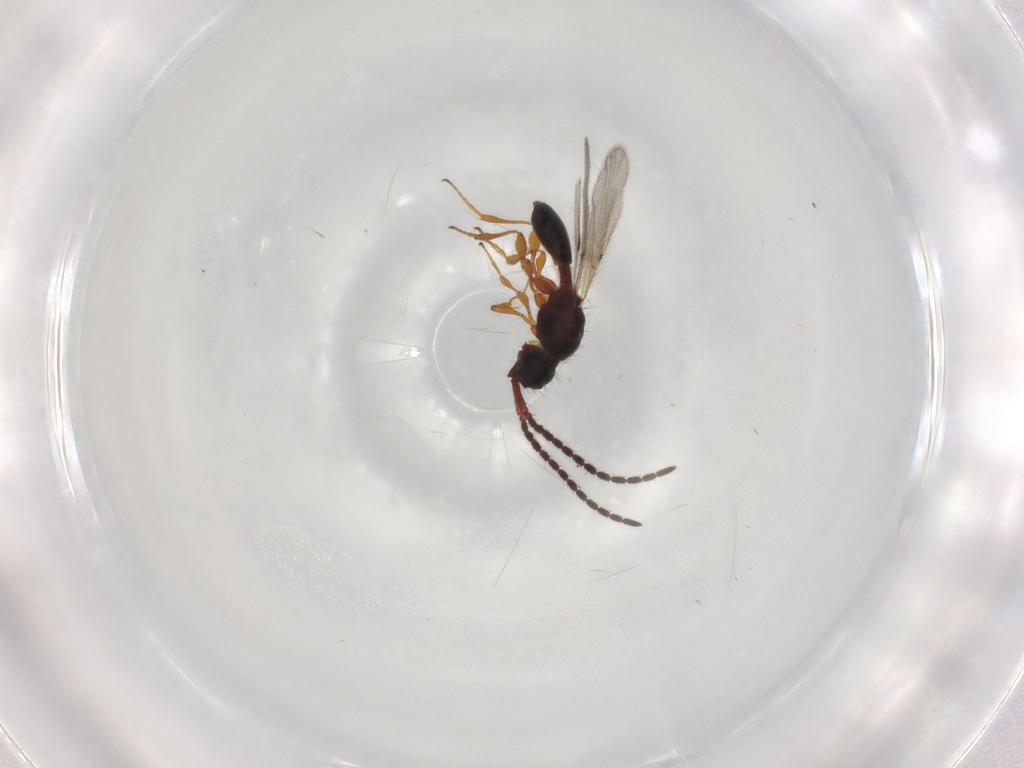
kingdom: Animalia
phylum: Arthropoda
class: Insecta
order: Hymenoptera
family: Diapriidae
